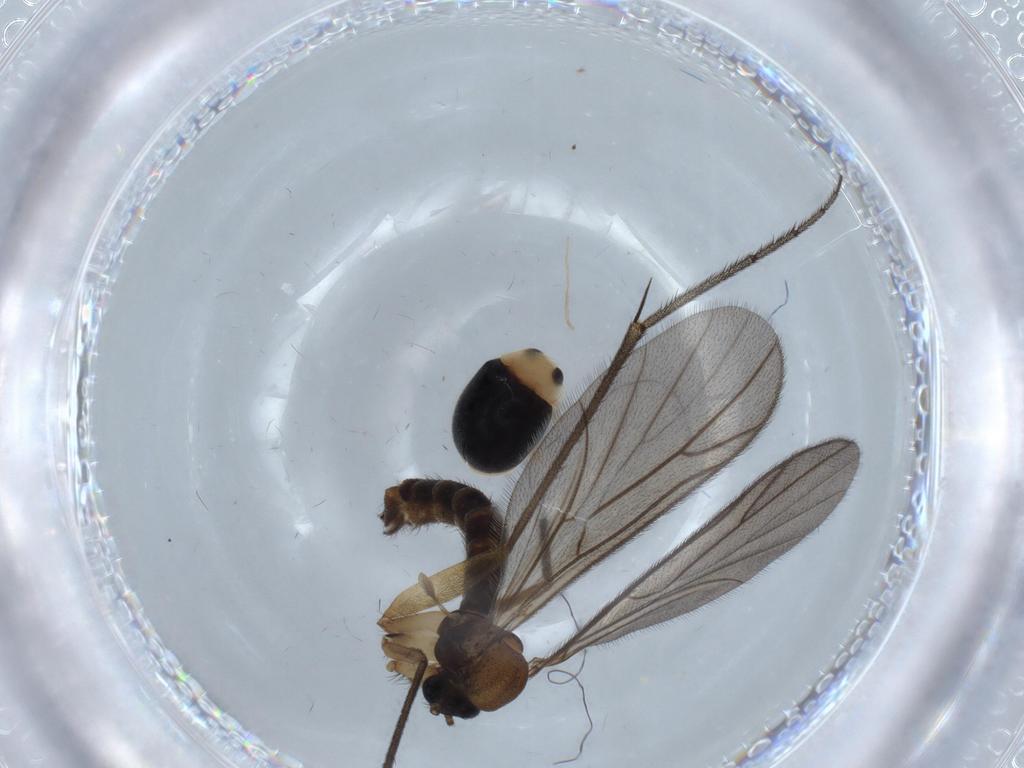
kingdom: Animalia
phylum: Arthropoda
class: Insecta
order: Diptera
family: Ditomyiidae
